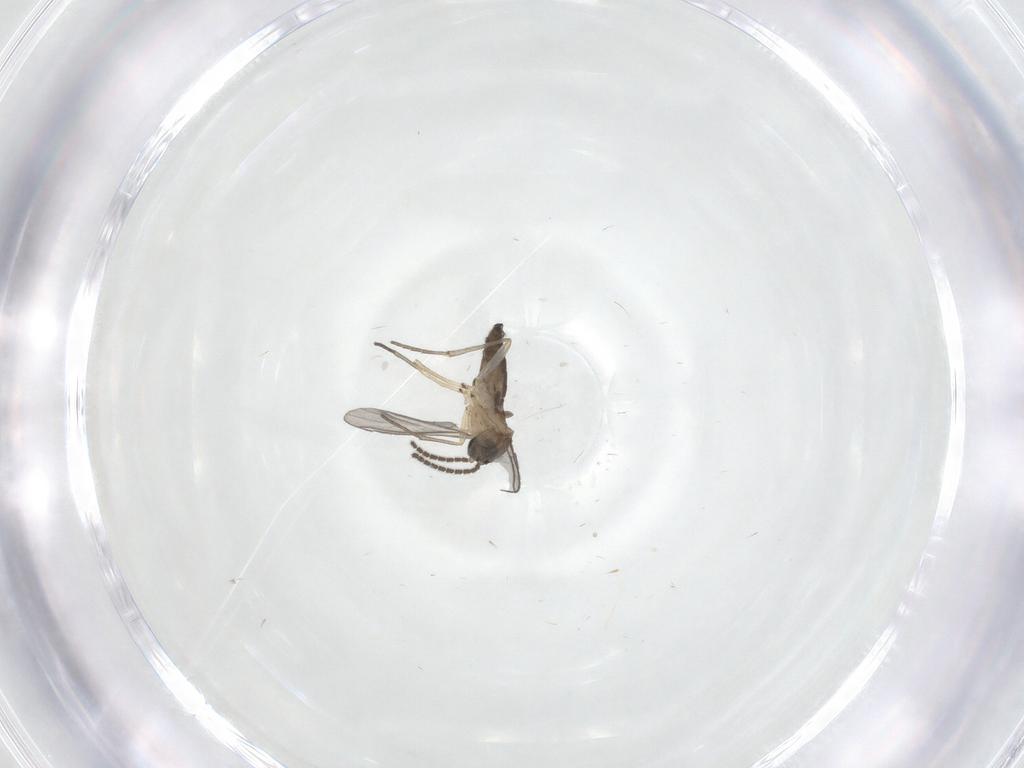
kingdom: Animalia
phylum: Arthropoda
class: Insecta
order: Diptera
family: Sciaridae
